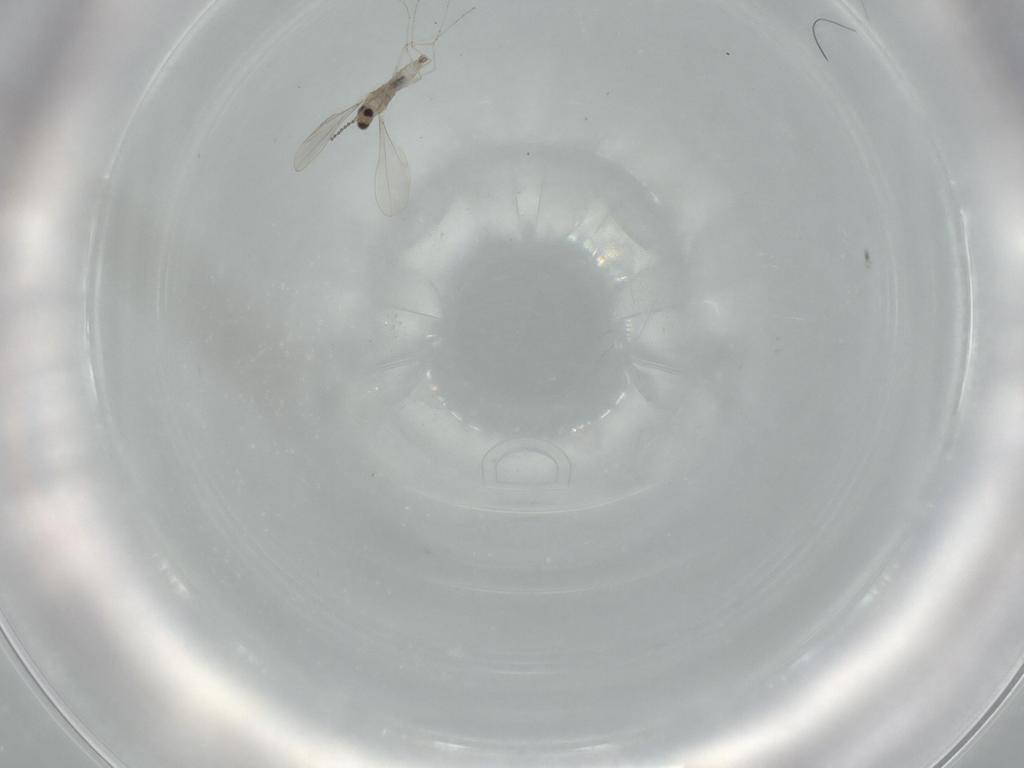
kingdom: Animalia
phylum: Arthropoda
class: Insecta
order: Diptera
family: Cecidomyiidae
